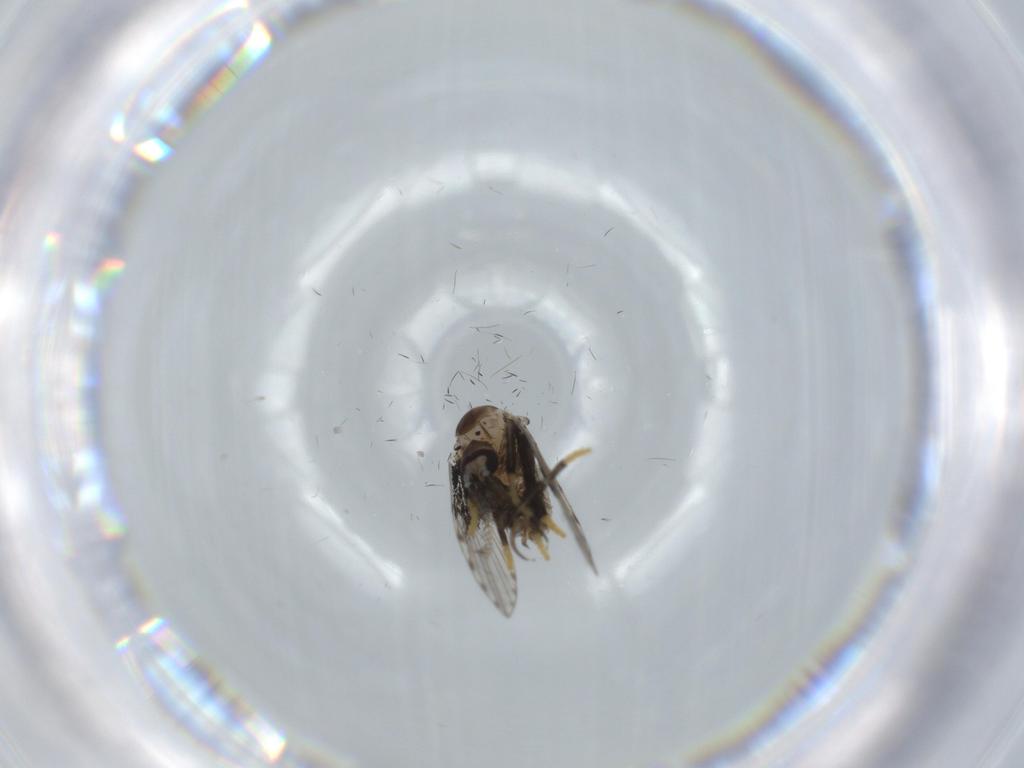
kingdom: Animalia
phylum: Arthropoda
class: Insecta
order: Diptera
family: Psychodidae
